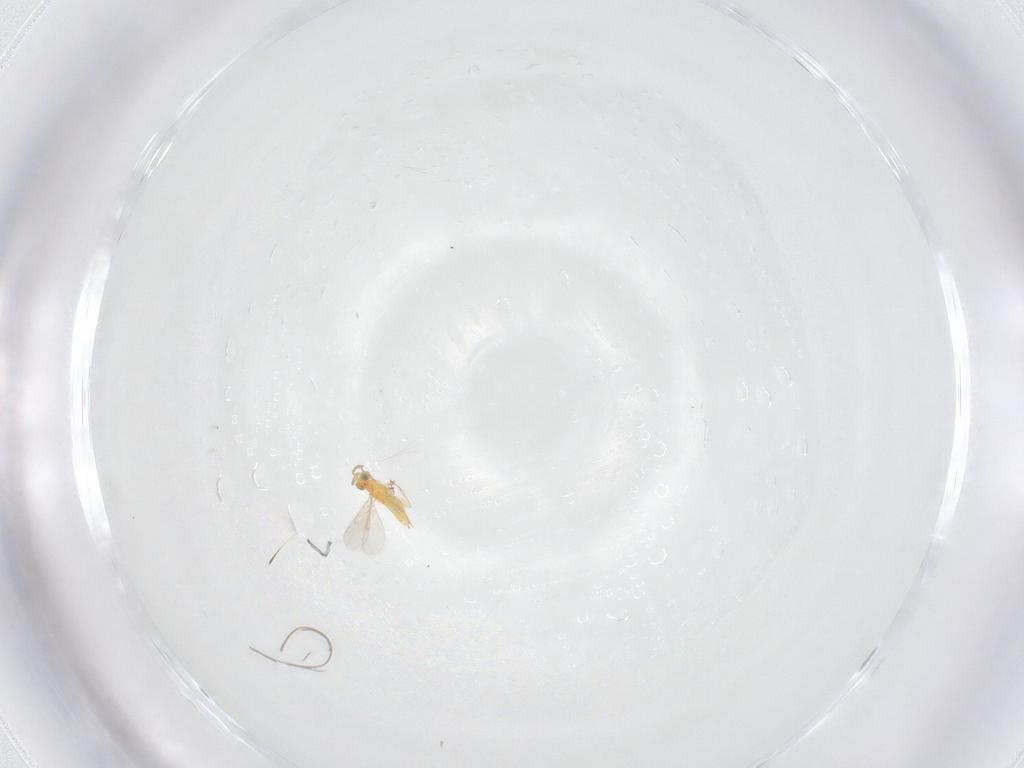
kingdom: Animalia
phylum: Arthropoda
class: Insecta
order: Hymenoptera
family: Aphelinidae
